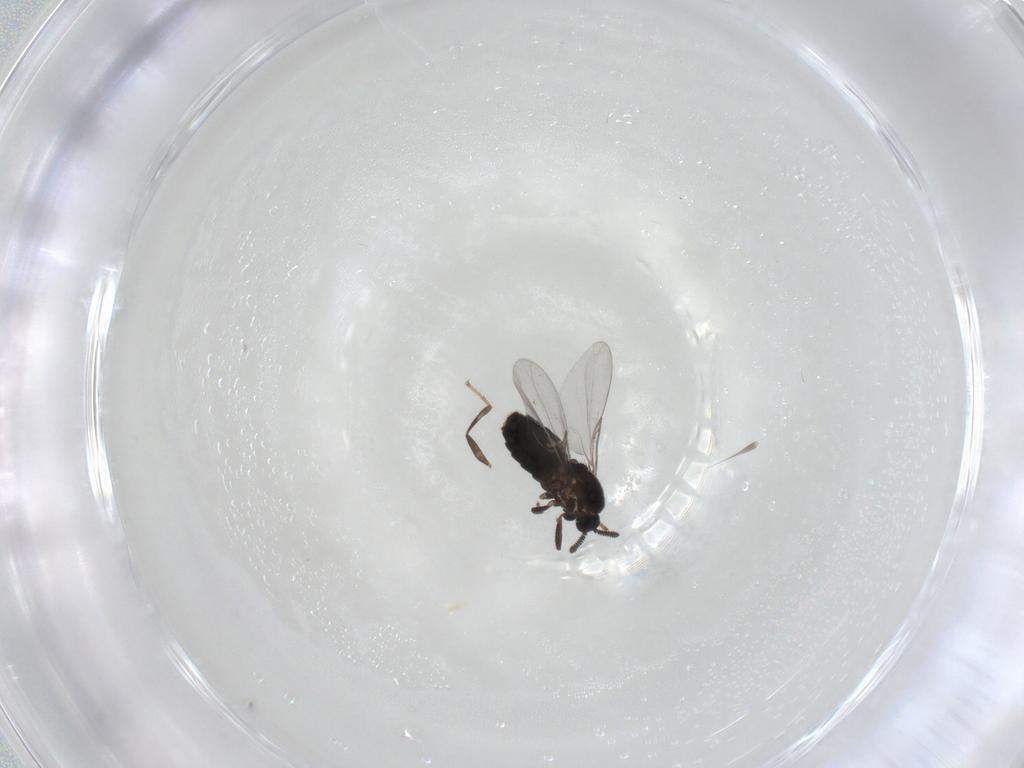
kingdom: Animalia
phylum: Arthropoda
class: Insecta
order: Diptera
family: Scatopsidae
